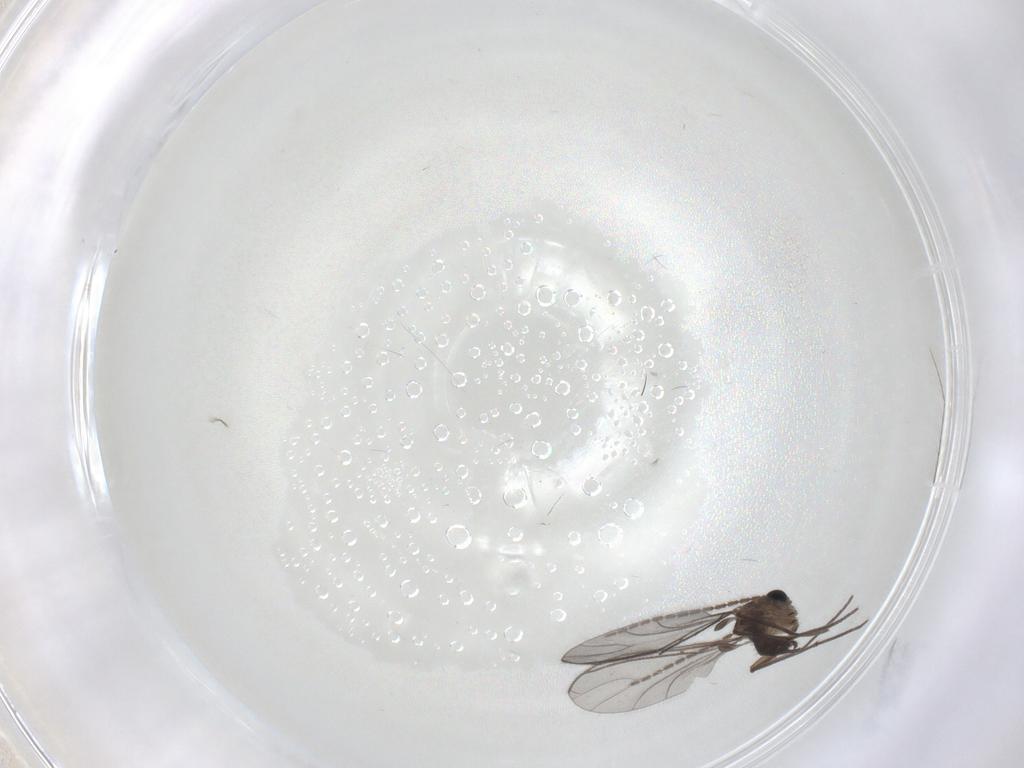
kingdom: Animalia
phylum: Arthropoda
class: Insecta
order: Diptera
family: Sciaridae
